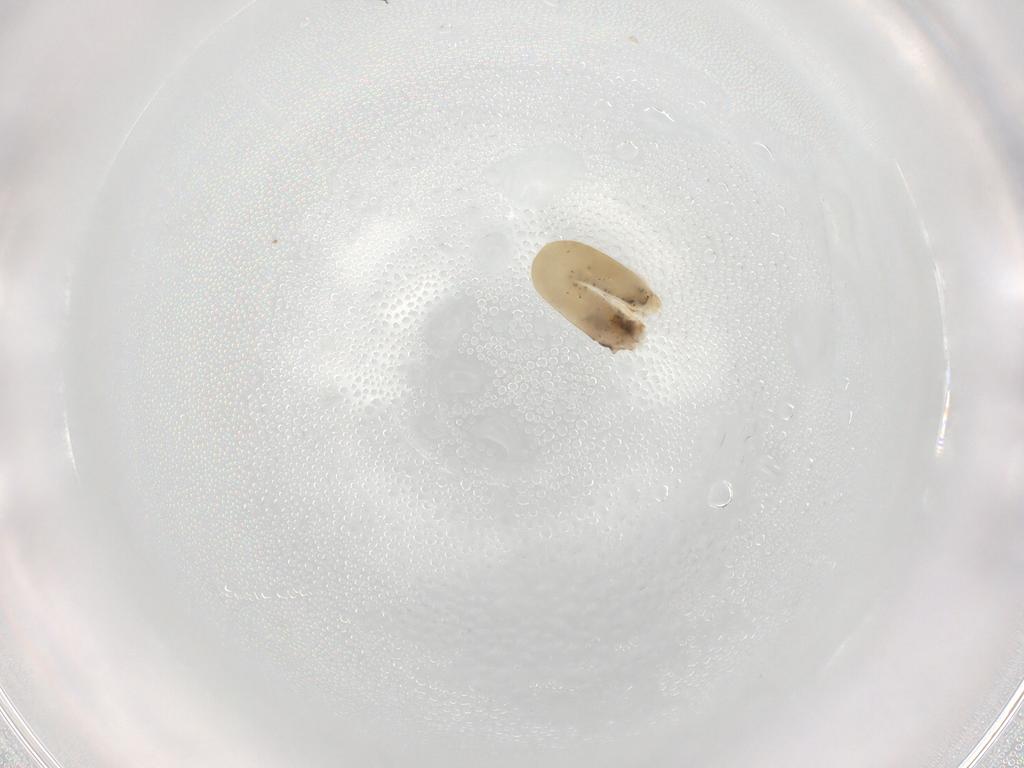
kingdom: Animalia
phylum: Arthropoda
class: Insecta
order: Hymenoptera
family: Dryinidae
